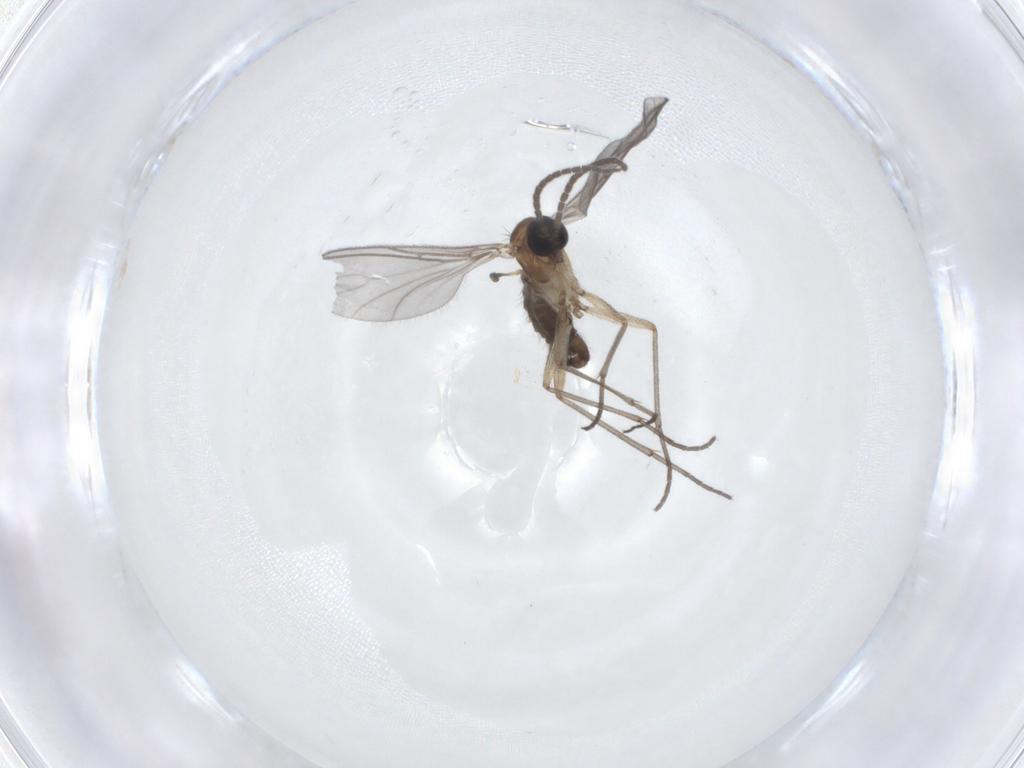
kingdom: Animalia
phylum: Arthropoda
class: Insecta
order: Diptera
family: Sciaridae
